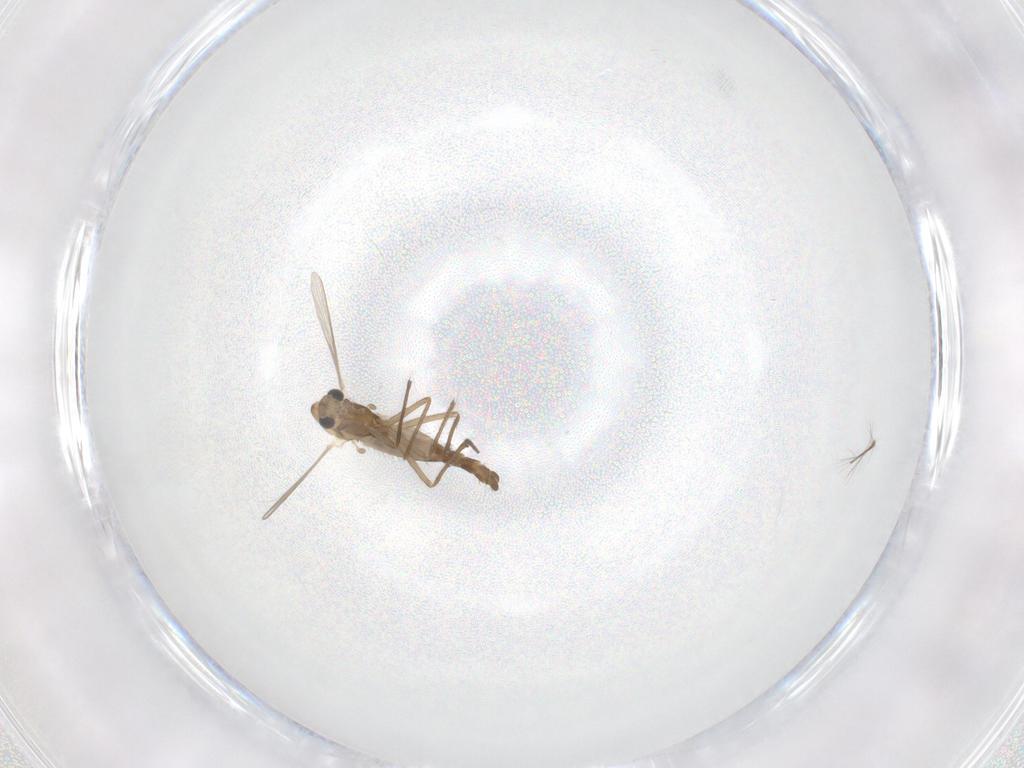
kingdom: Animalia
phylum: Arthropoda
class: Insecta
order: Diptera
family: Chironomidae
